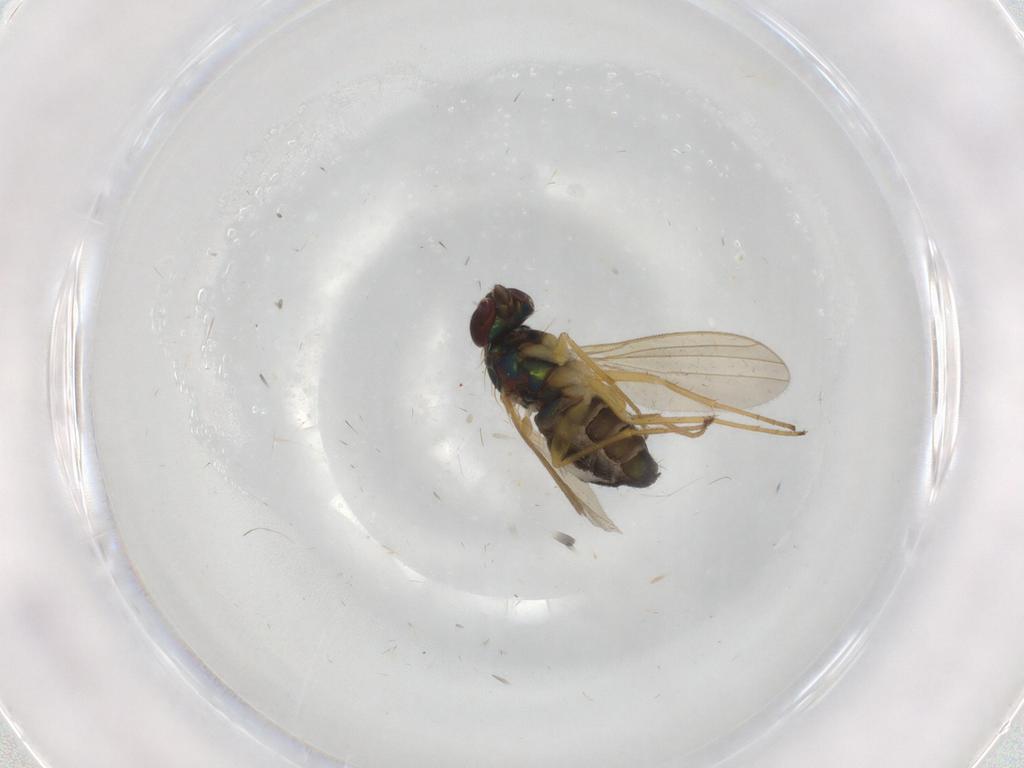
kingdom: Animalia
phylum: Arthropoda
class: Insecta
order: Diptera
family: Dolichopodidae
